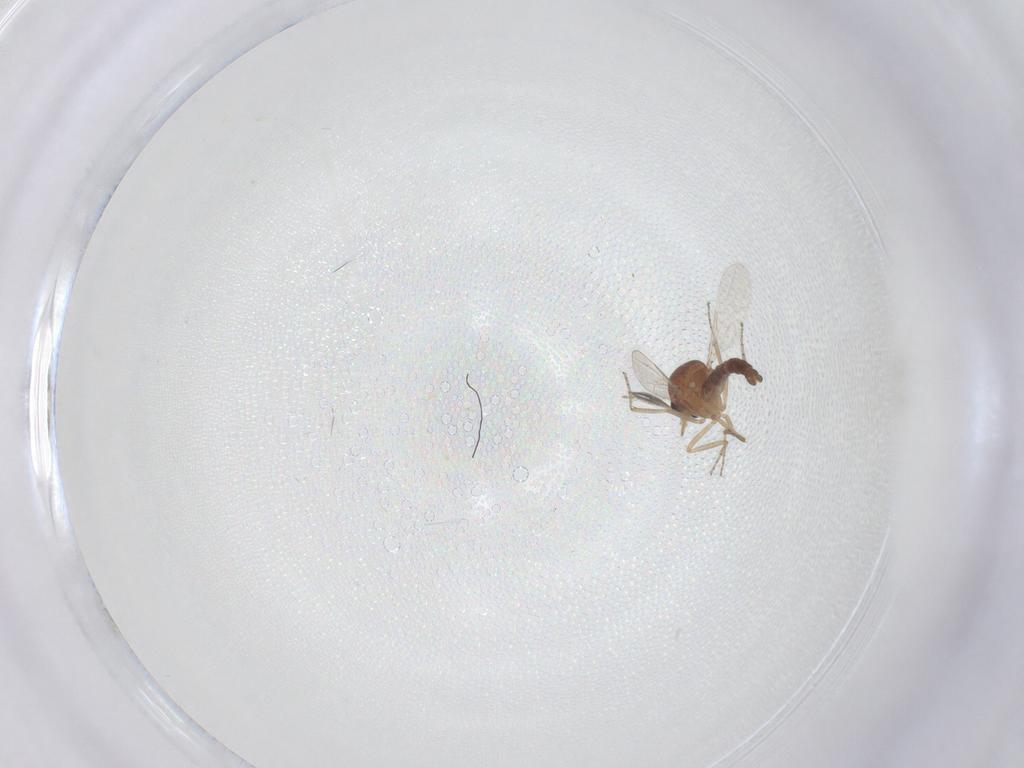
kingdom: Animalia
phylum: Arthropoda
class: Insecta
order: Diptera
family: Ceratopogonidae
